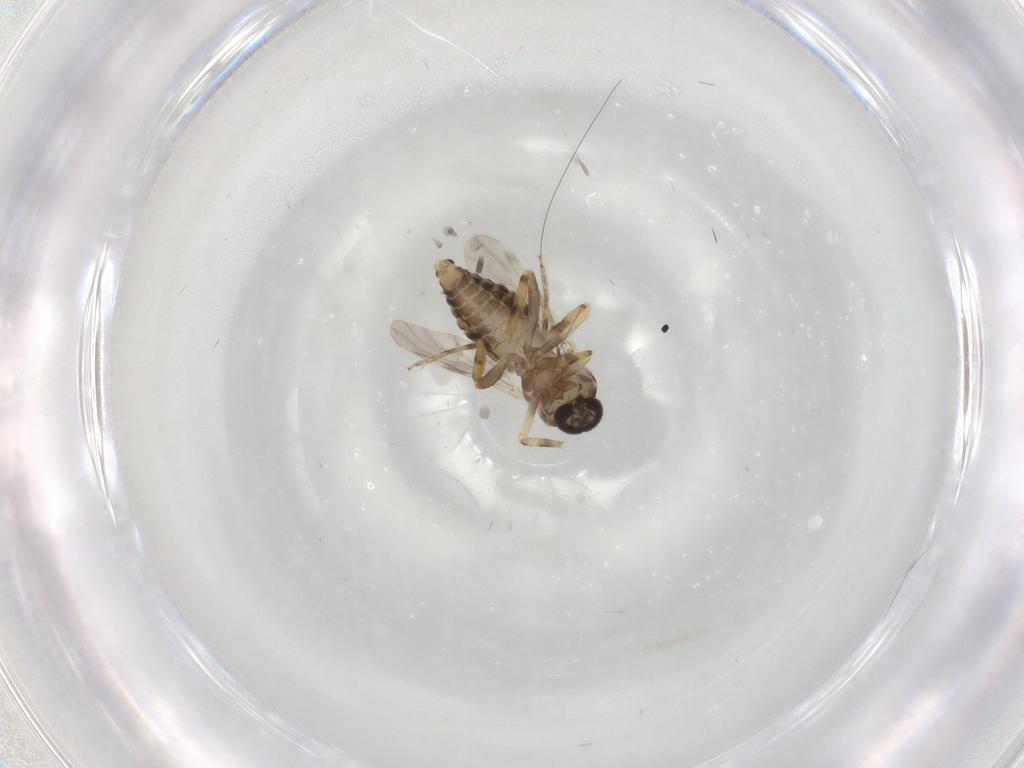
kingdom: Animalia
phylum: Arthropoda
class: Insecta
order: Diptera
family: Ceratopogonidae
